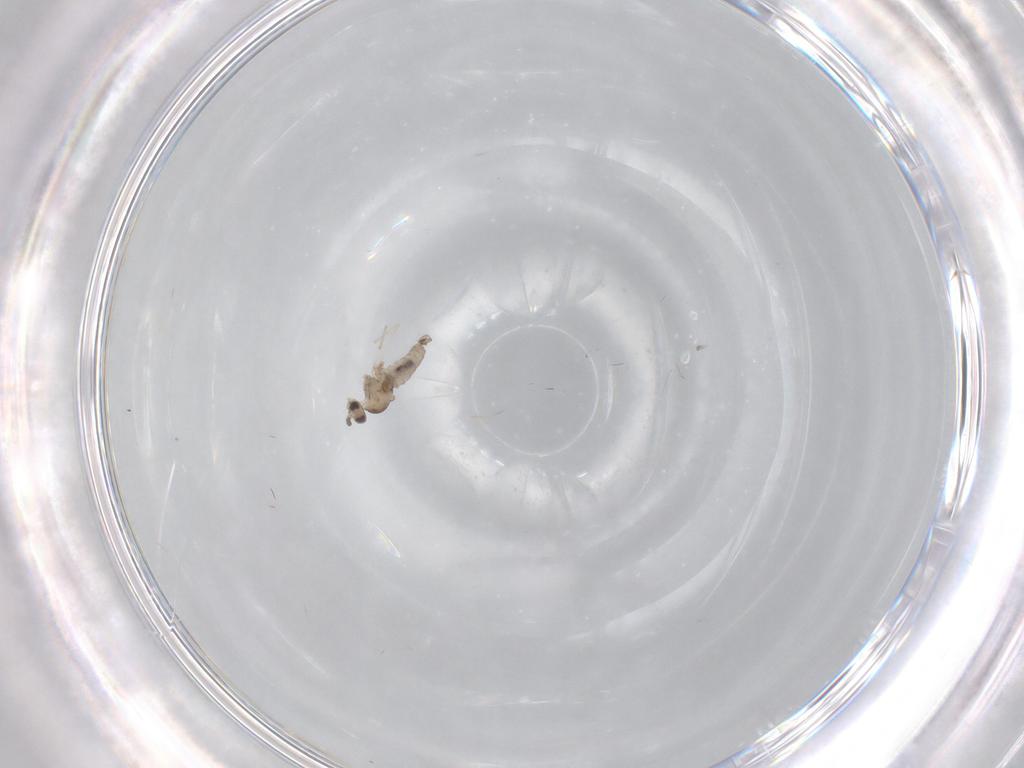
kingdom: Animalia
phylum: Arthropoda
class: Insecta
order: Diptera
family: Cecidomyiidae
